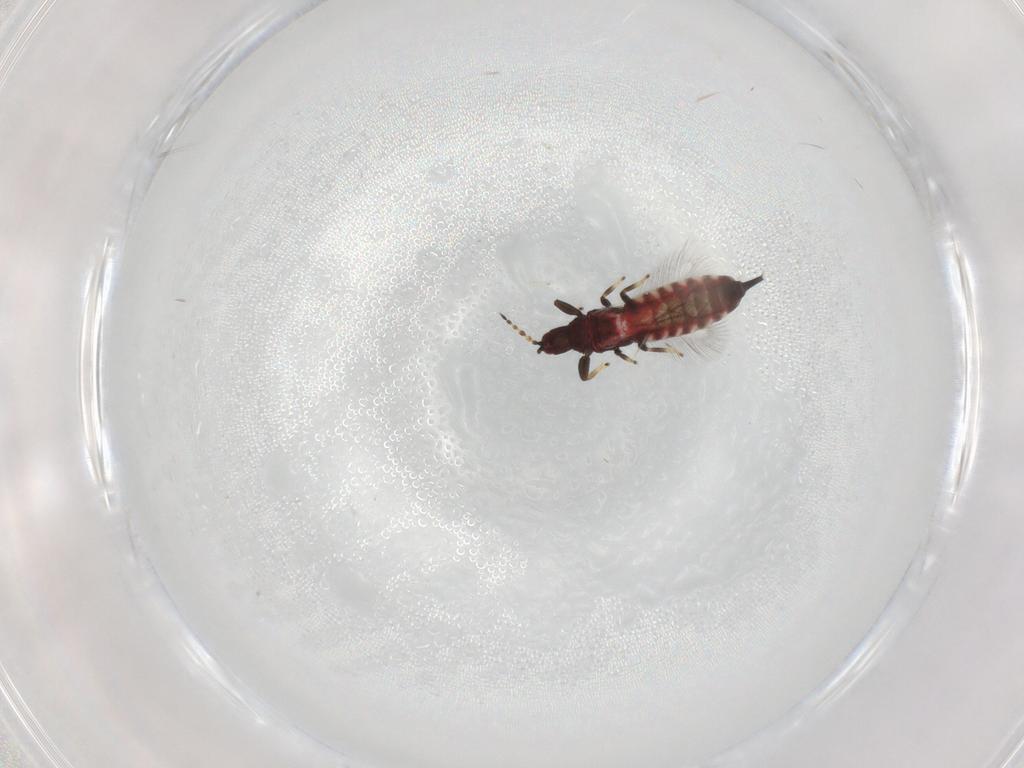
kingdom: Animalia
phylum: Arthropoda
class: Insecta
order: Thysanoptera
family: Phlaeothripidae
